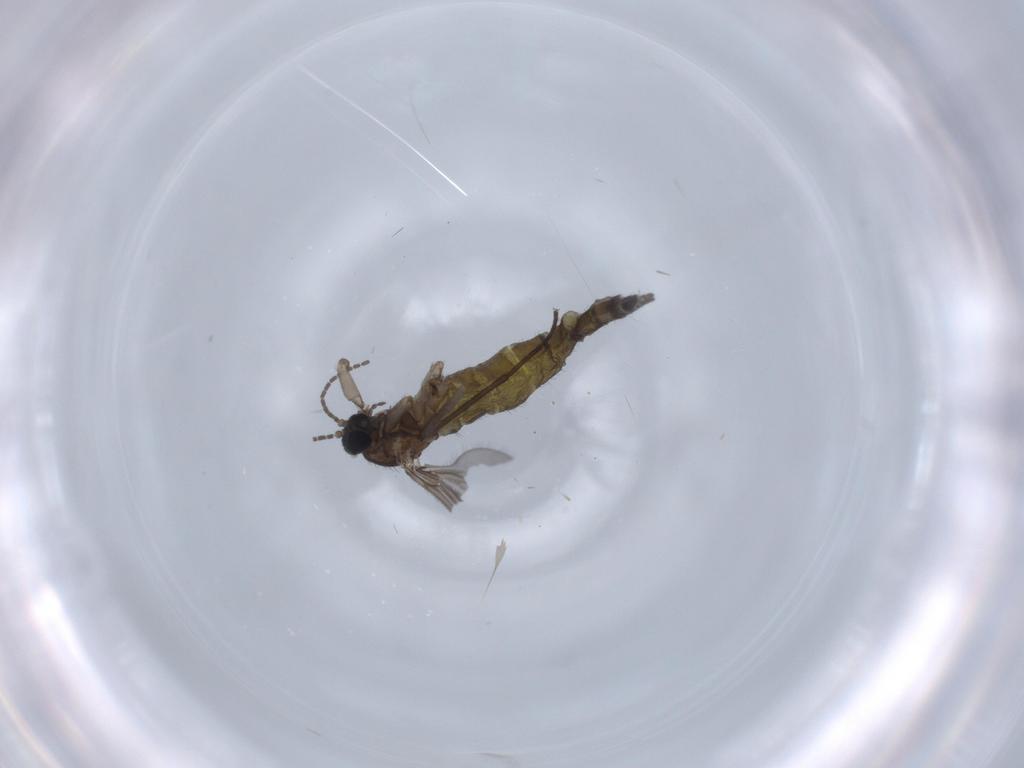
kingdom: Animalia
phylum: Arthropoda
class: Insecta
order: Diptera
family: Sciaridae
